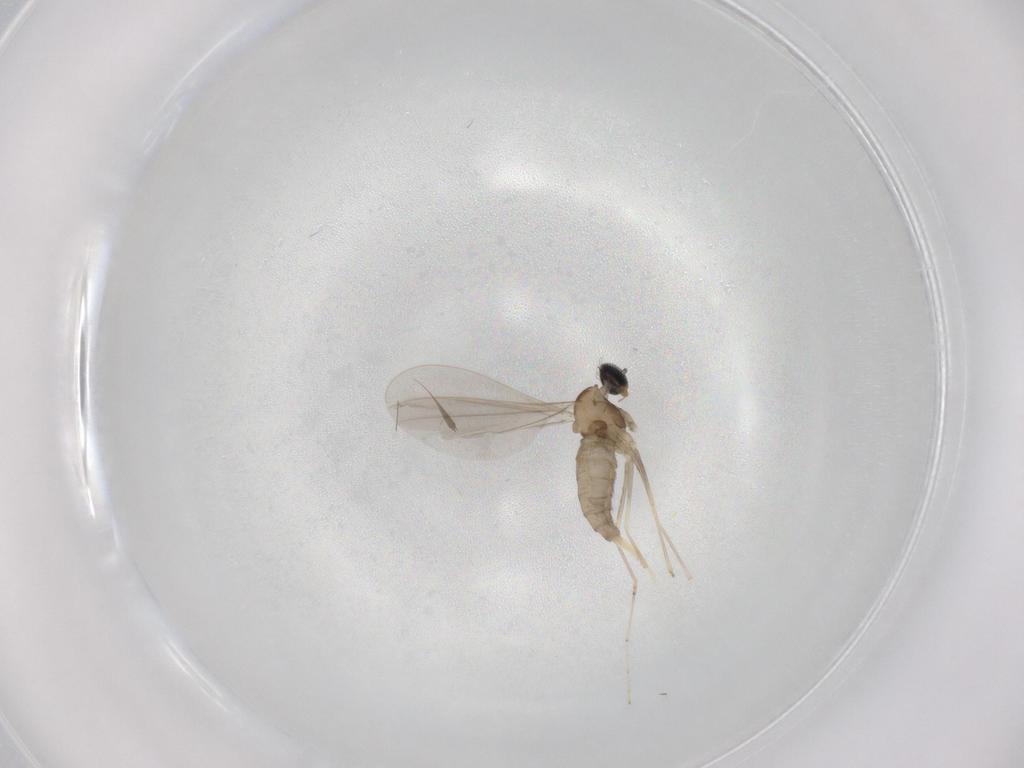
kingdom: Animalia
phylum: Arthropoda
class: Insecta
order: Diptera
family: Cecidomyiidae
